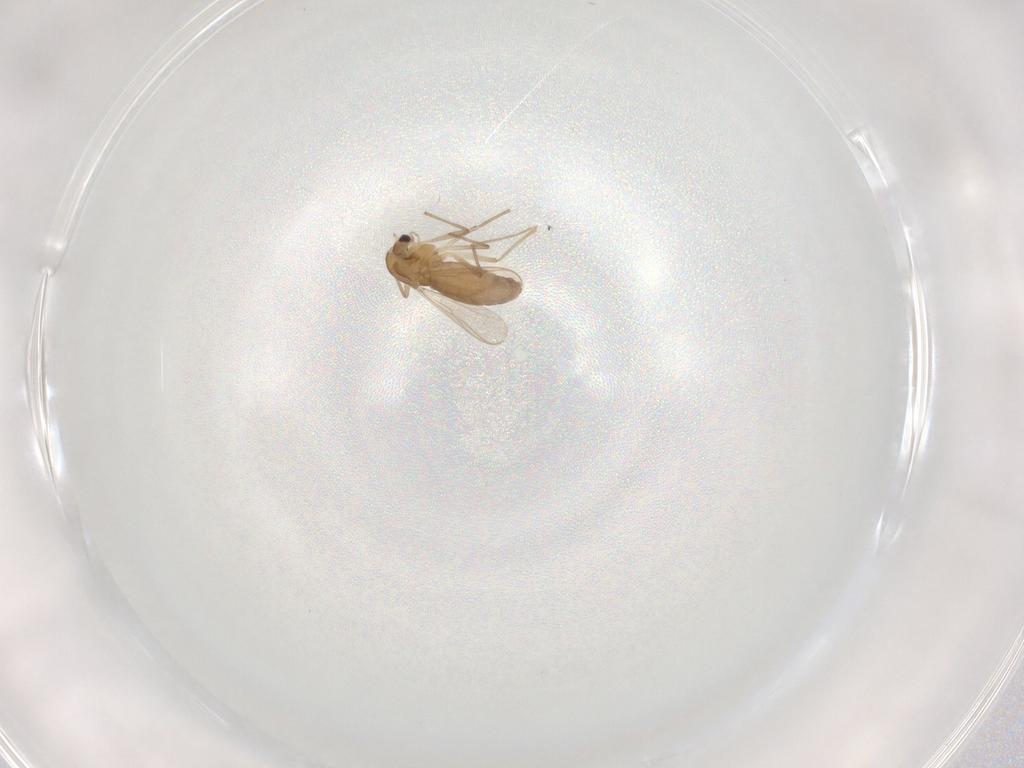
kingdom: Animalia
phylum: Arthropoda
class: Insecta
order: Diptera
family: Chironomidae
